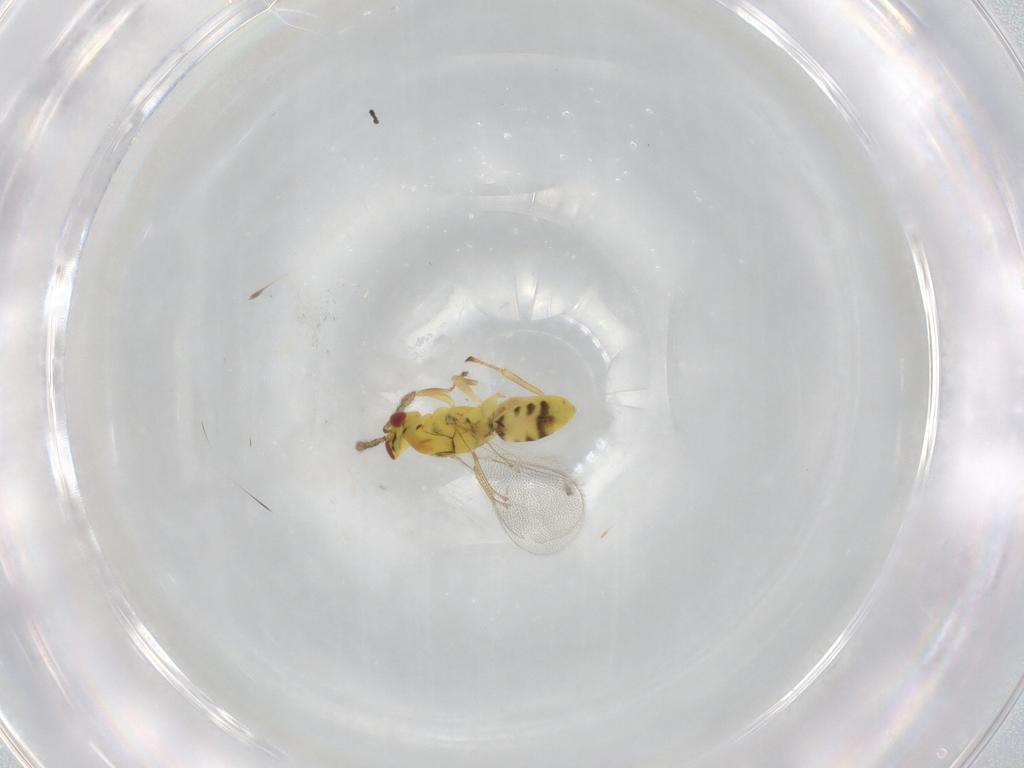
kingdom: Animalia
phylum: Arthropoda
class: Insecta
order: Hymenoptera
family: Eulophidae
